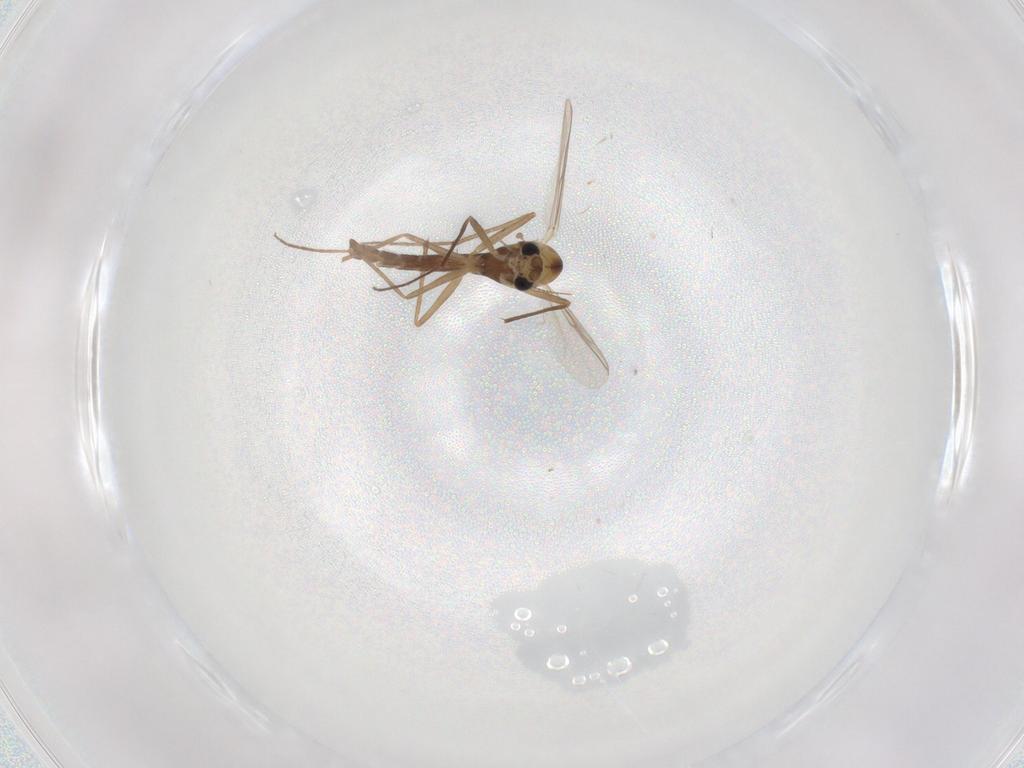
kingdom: Animalia
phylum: Arthropoda
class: Insecta
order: Diptera
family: Chironomidae
